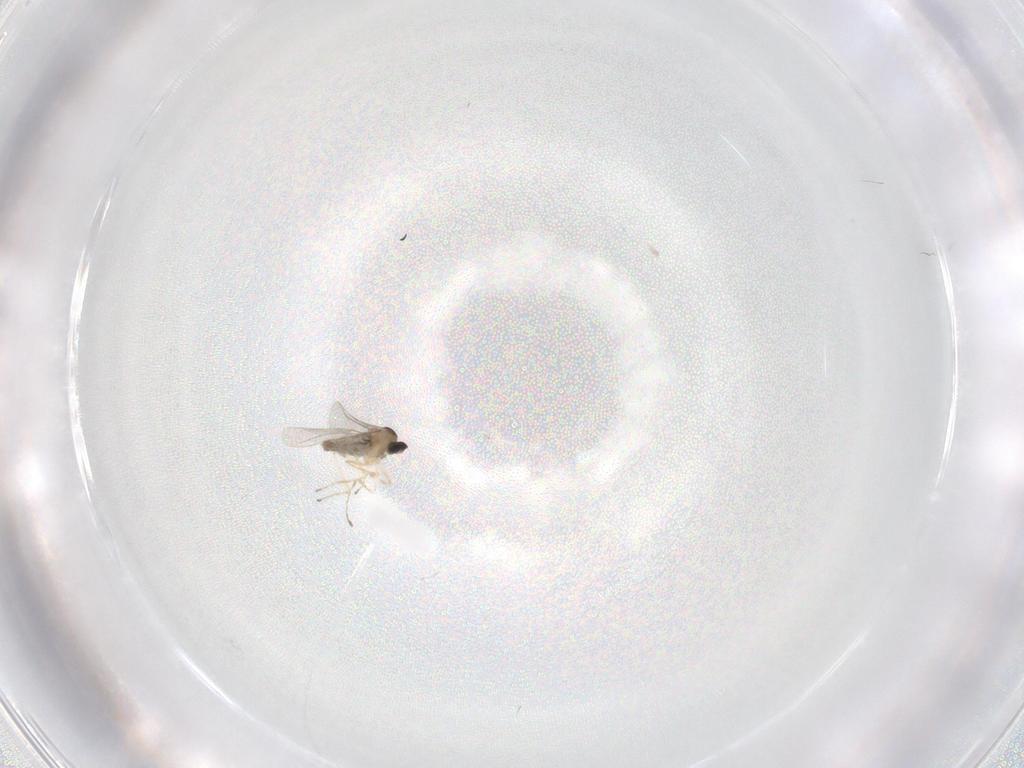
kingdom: Animalia
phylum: Arthropoda
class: Insecta
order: Diptera
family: Cecidomyiidae
